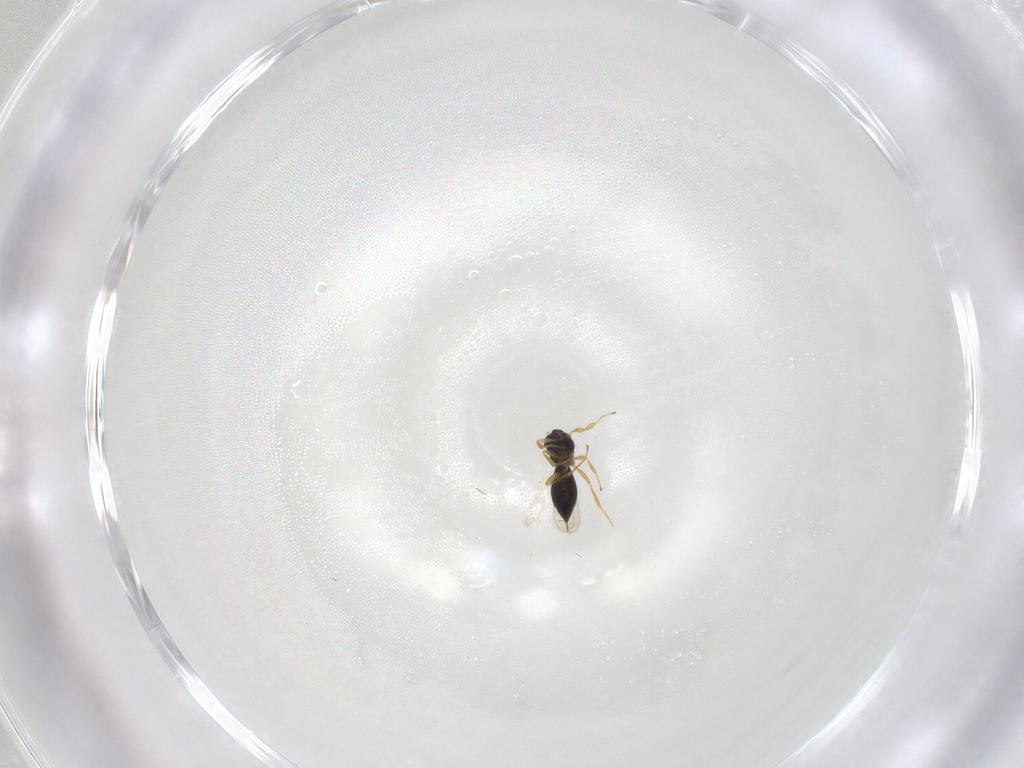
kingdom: Animalia
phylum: Arthropoda
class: Insecta
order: Hymenoptera
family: Scelionidae
